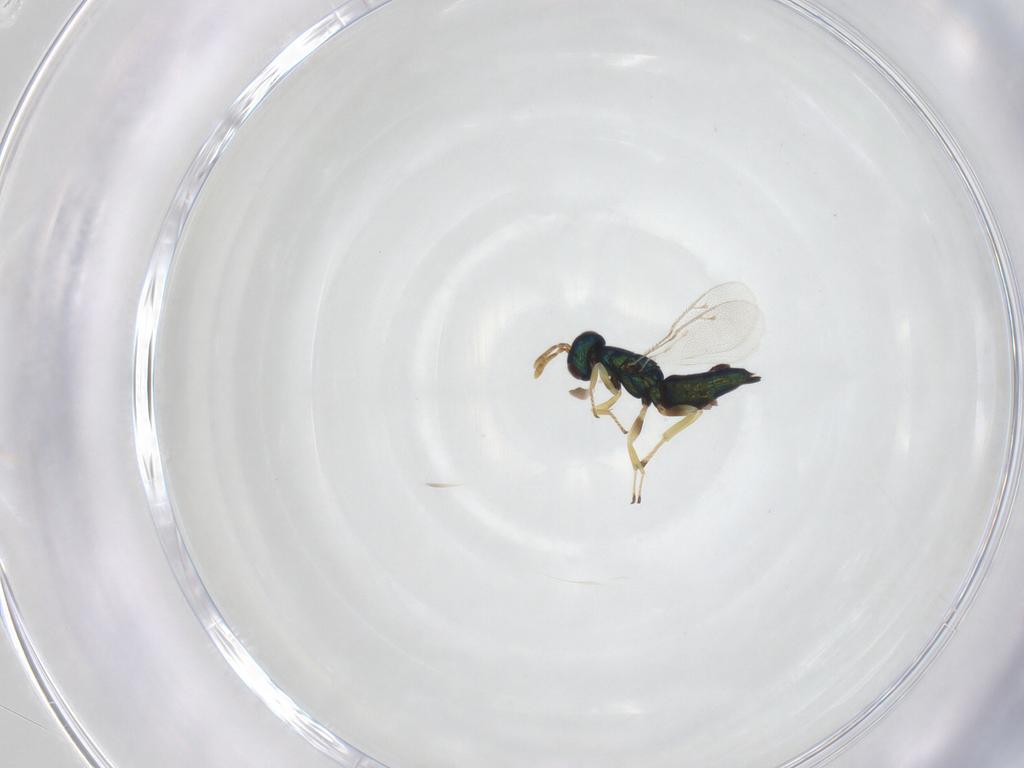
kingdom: Animalia
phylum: Arthropoda
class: Insecta
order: Hymenoptera
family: Pteromalidae
